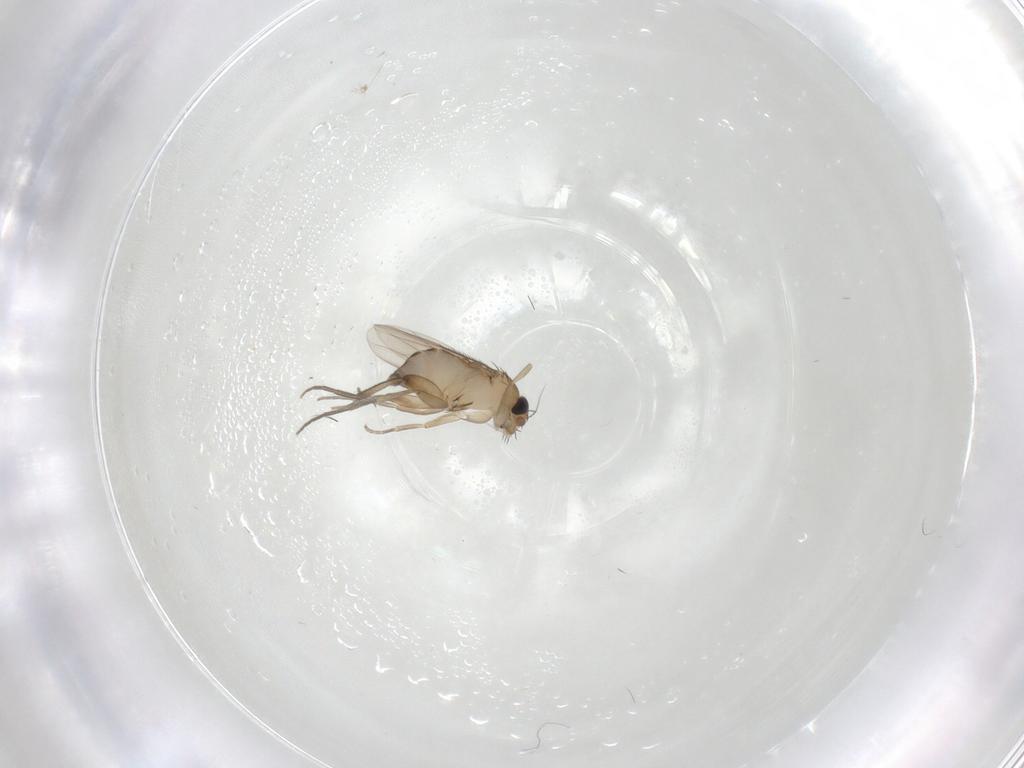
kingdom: Animalia
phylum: Arthropoda
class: Insecta
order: Diptera
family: Phoridae
